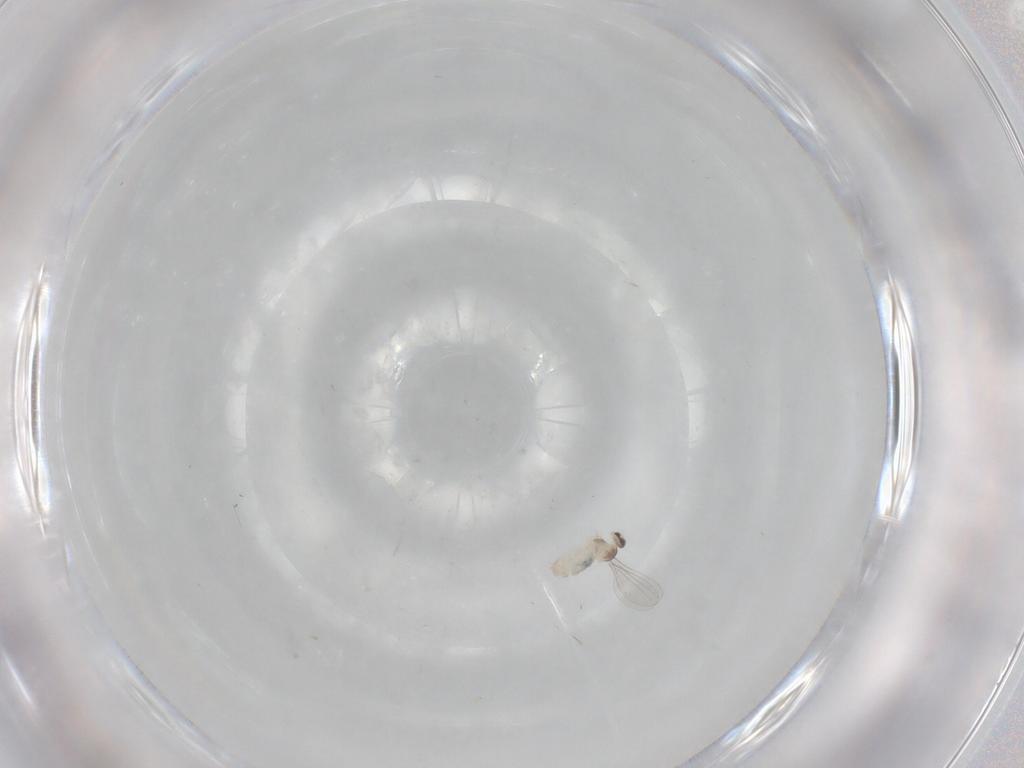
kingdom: Animalia
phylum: Arthropoda
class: Insecta
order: Diptera
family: Cecidomyiidae
